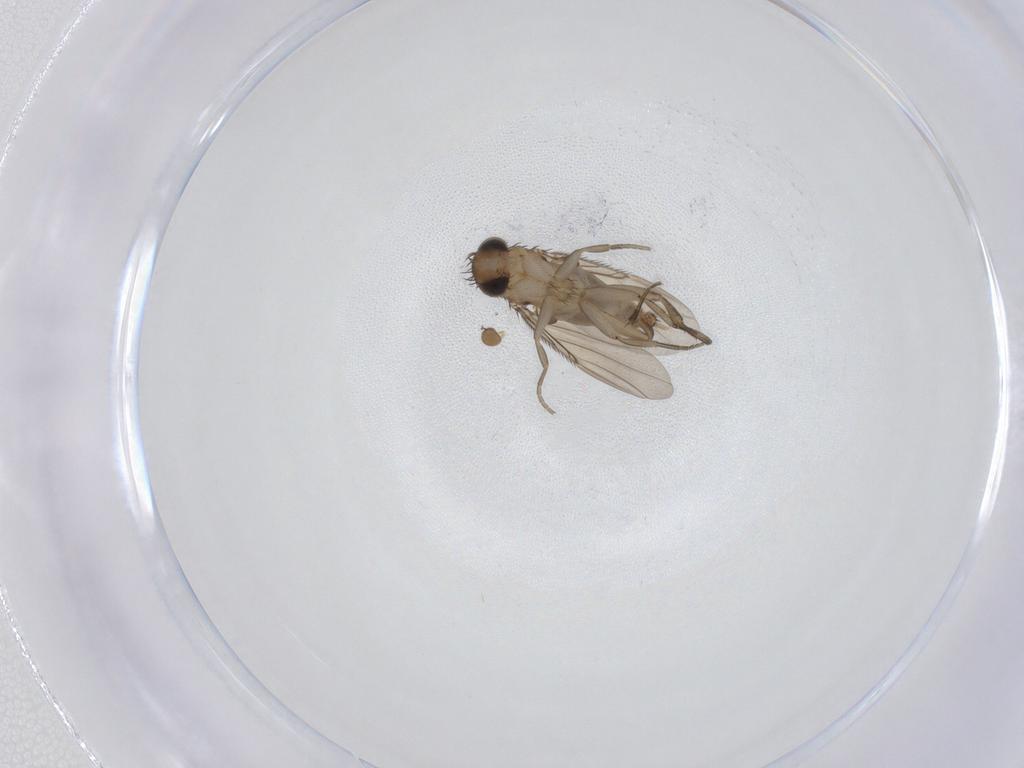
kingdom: Animalia
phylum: Arthropoda
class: Insecta
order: Diptera
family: Phoridae
